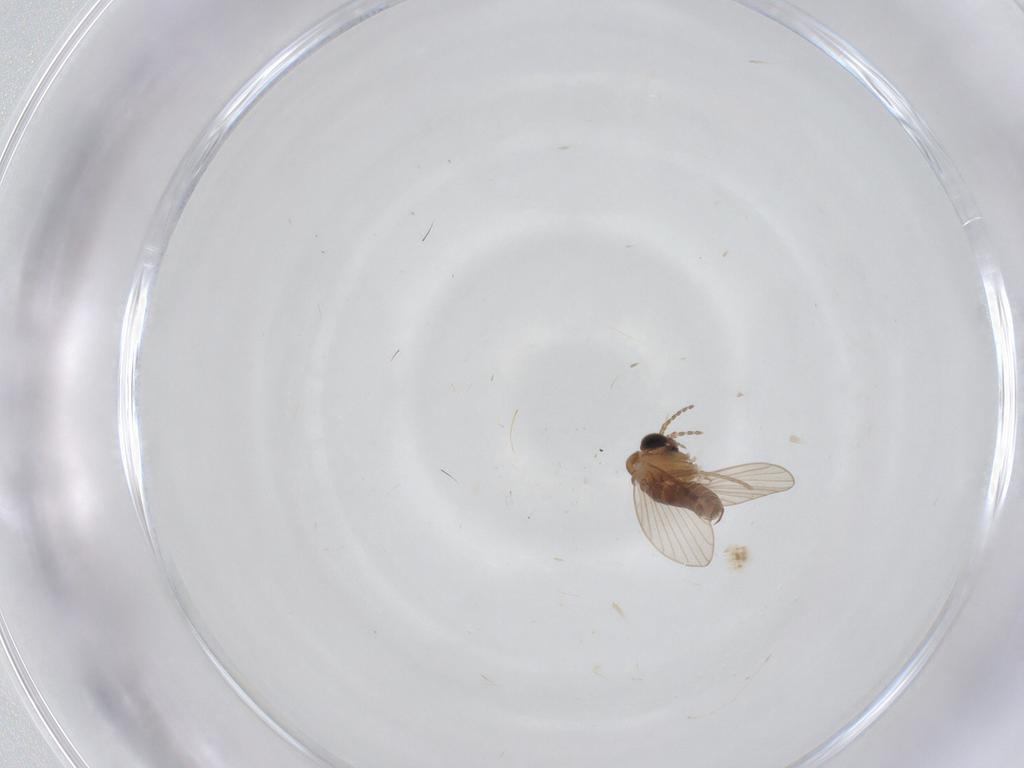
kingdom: Animalia
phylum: Arthropoda
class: Insecta
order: Diptera
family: Cecidomyiidae
